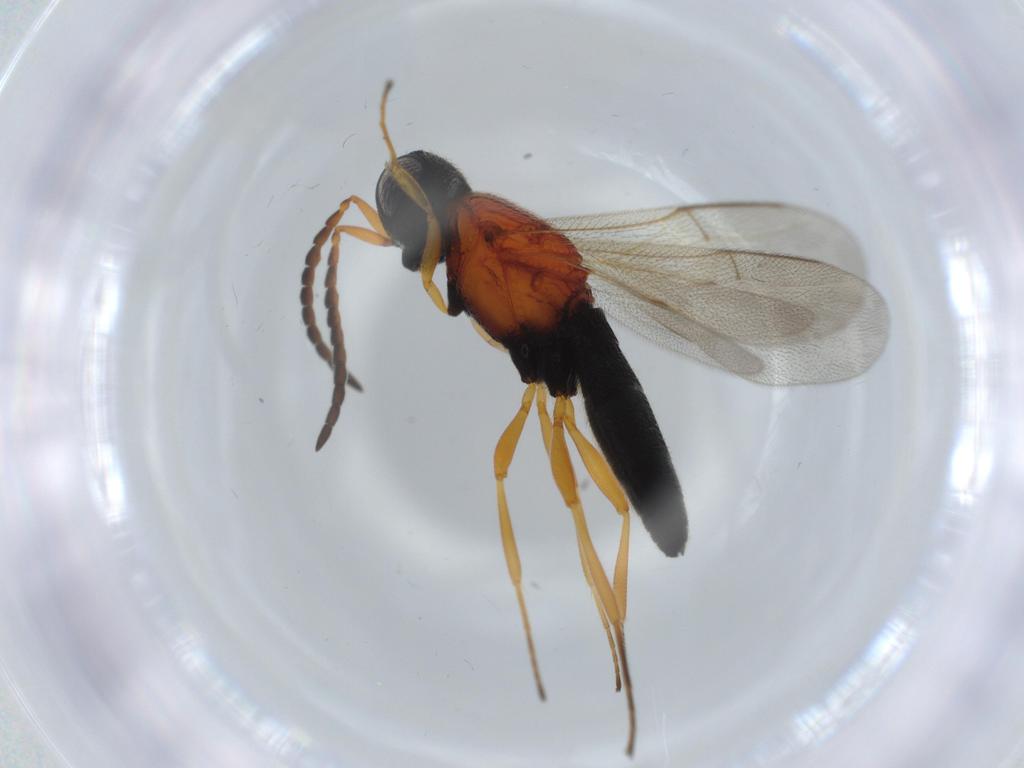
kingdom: Animalia
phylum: Arthropoda
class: Insecta
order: Hymenoptera
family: Scelionidae
